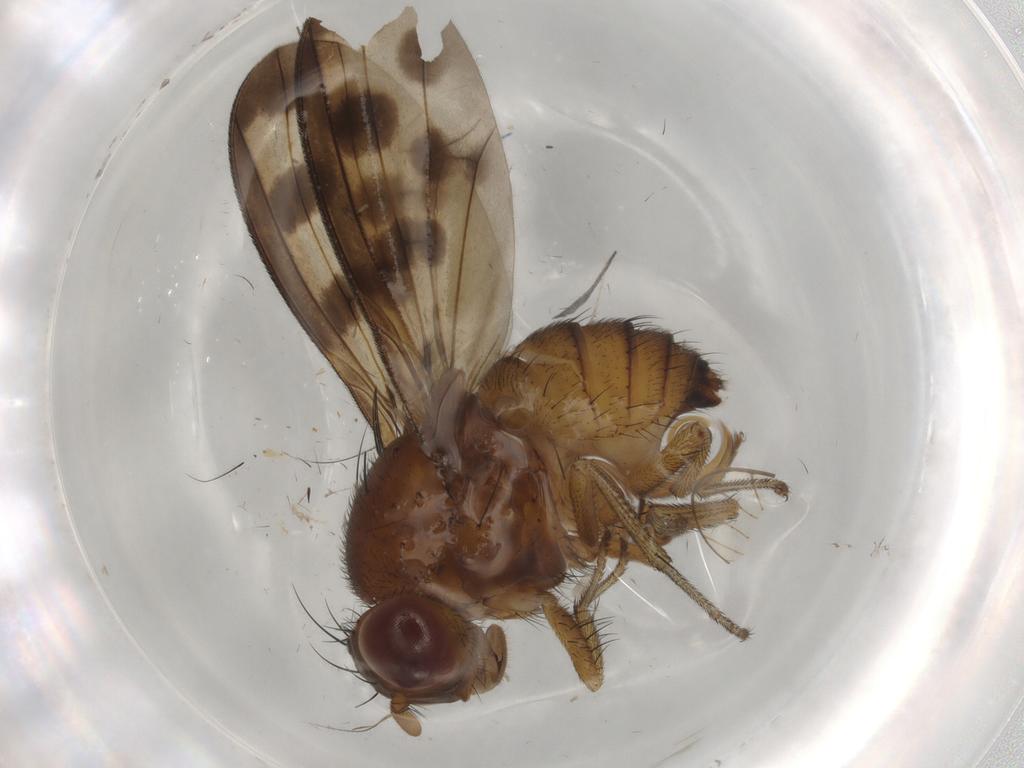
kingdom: Animalia
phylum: Arthropoda
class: Insecta
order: Diptera
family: Chironomidae
